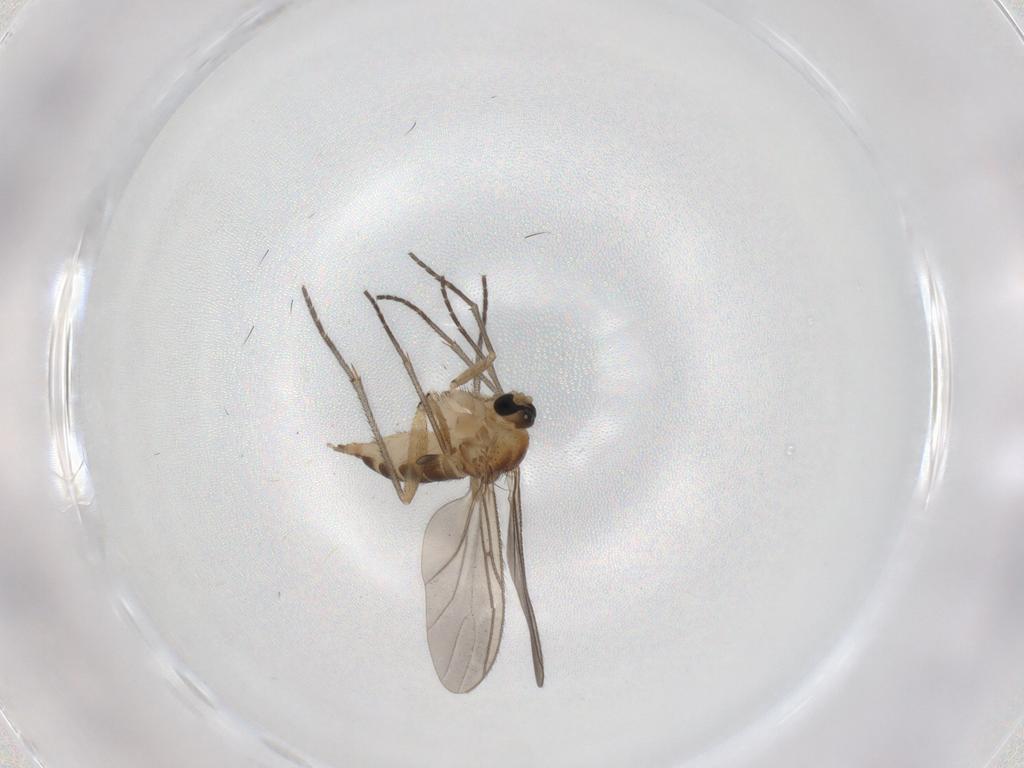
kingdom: Animalia
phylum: Arthropoda
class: Insecta
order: Diptera
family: Sciaridae
